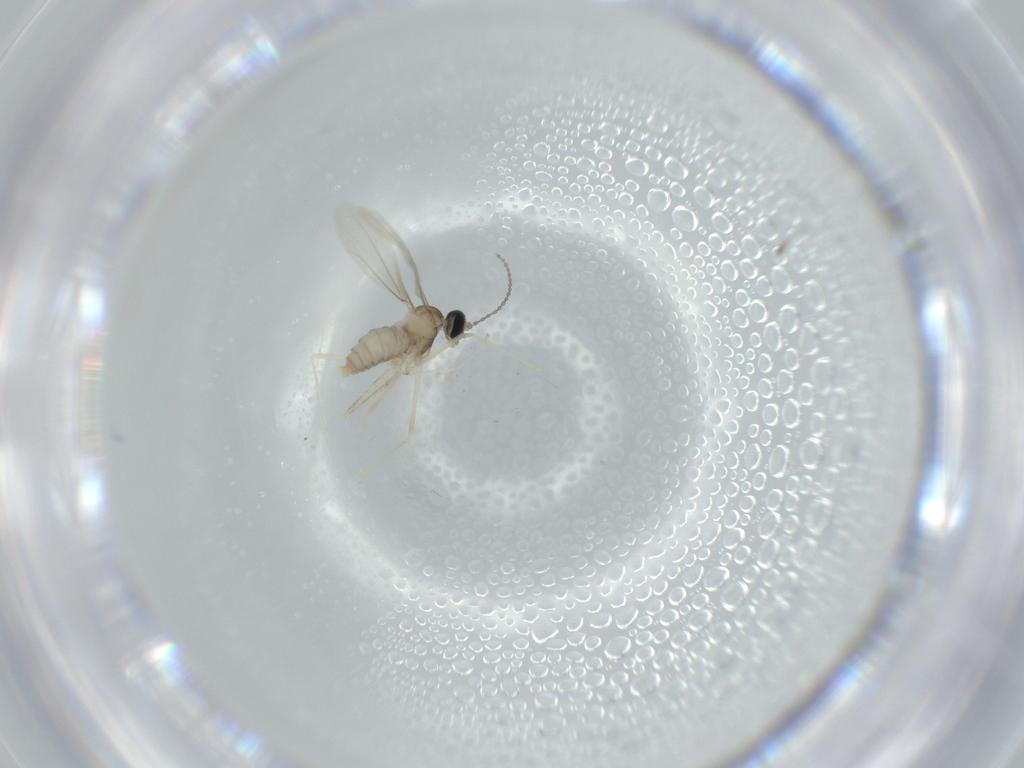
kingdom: Animalia
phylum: Arthropoda
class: Insecta
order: Diptera
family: Cecidomyiidae
